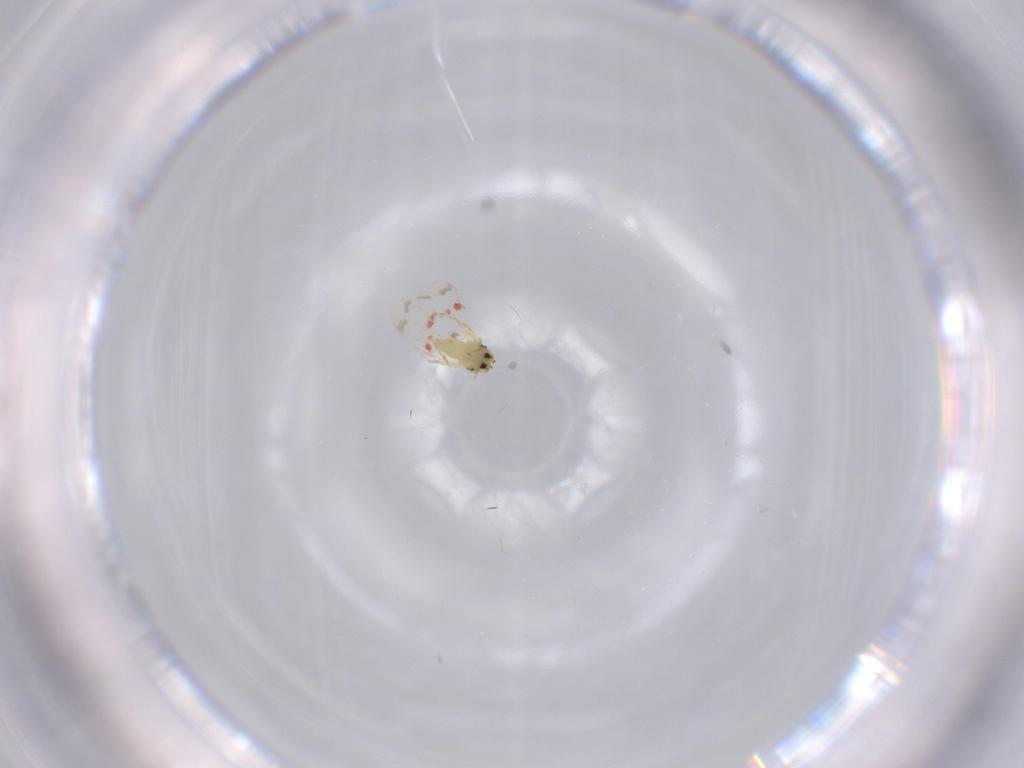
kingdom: Animalia
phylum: Arthropoda
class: Insecta
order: Hemiptera
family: Aleyrodidae
